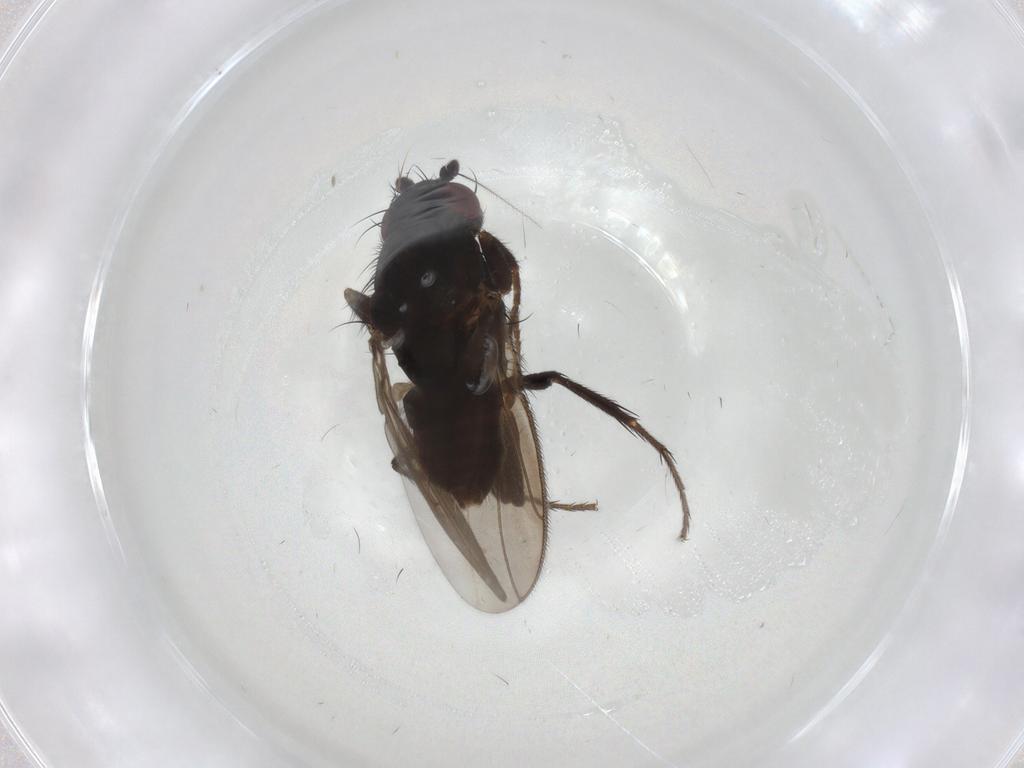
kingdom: Animalia
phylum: Arthropoda
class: Insecta
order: Diptera
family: Sphaeroceridae
